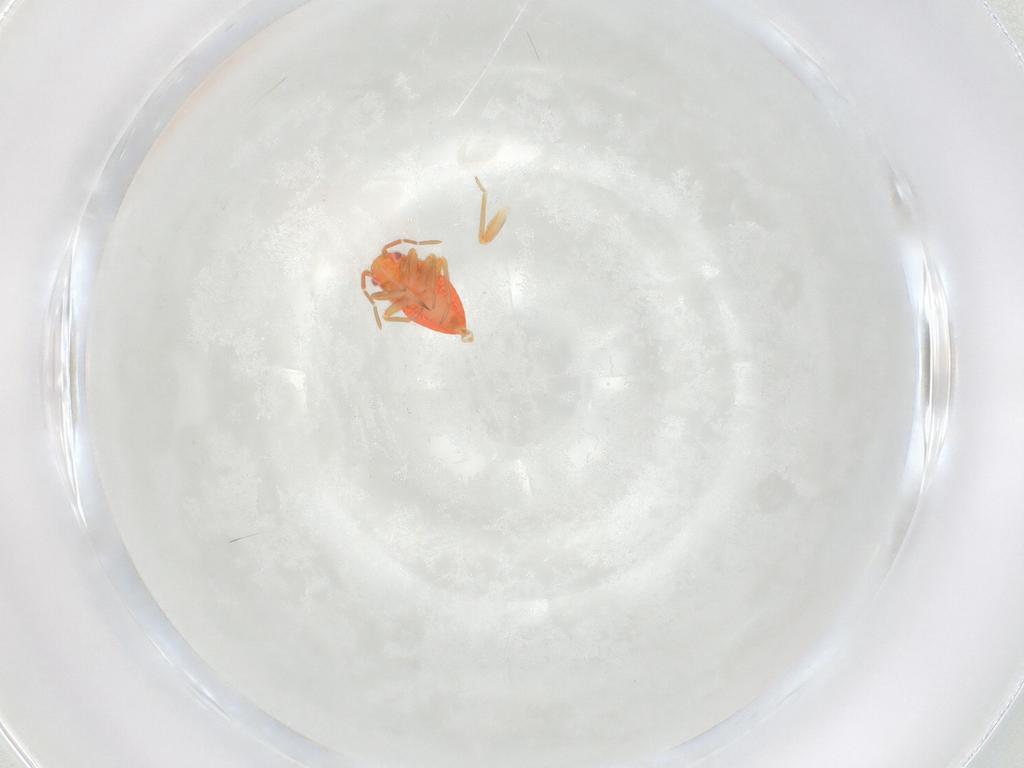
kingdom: Animalia
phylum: Arthropoda
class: Insecta
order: Hemiptera
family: Miridae
